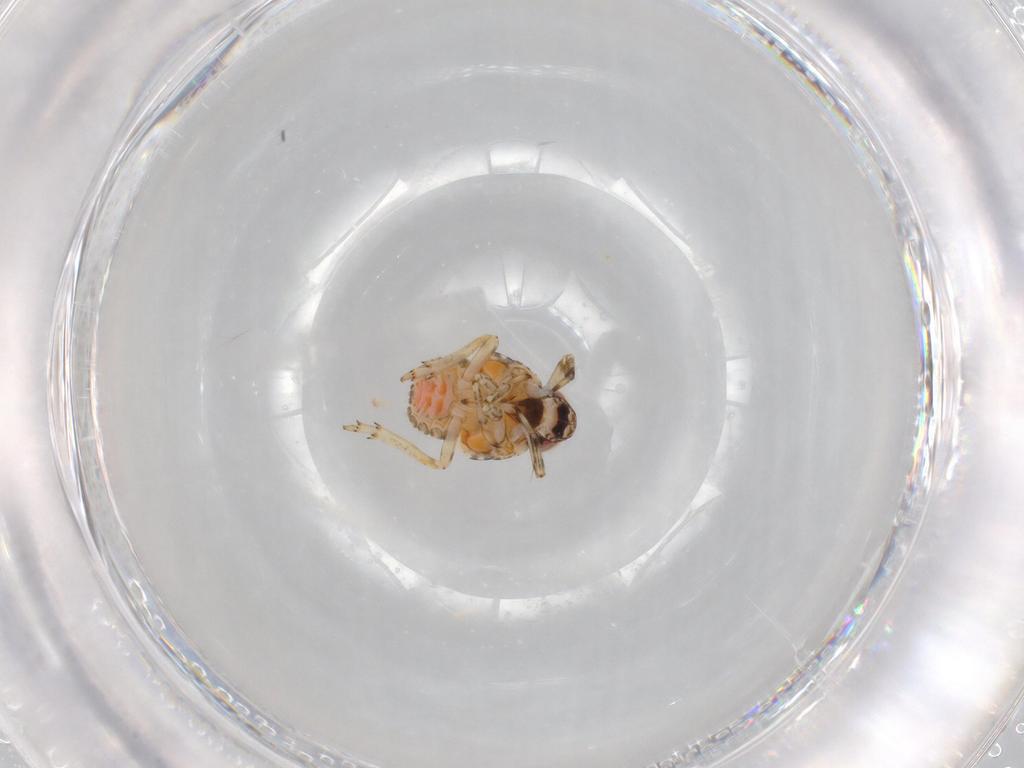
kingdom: Animalia
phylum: Arthropoda
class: Insecta
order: Hemiptera
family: Issidae
